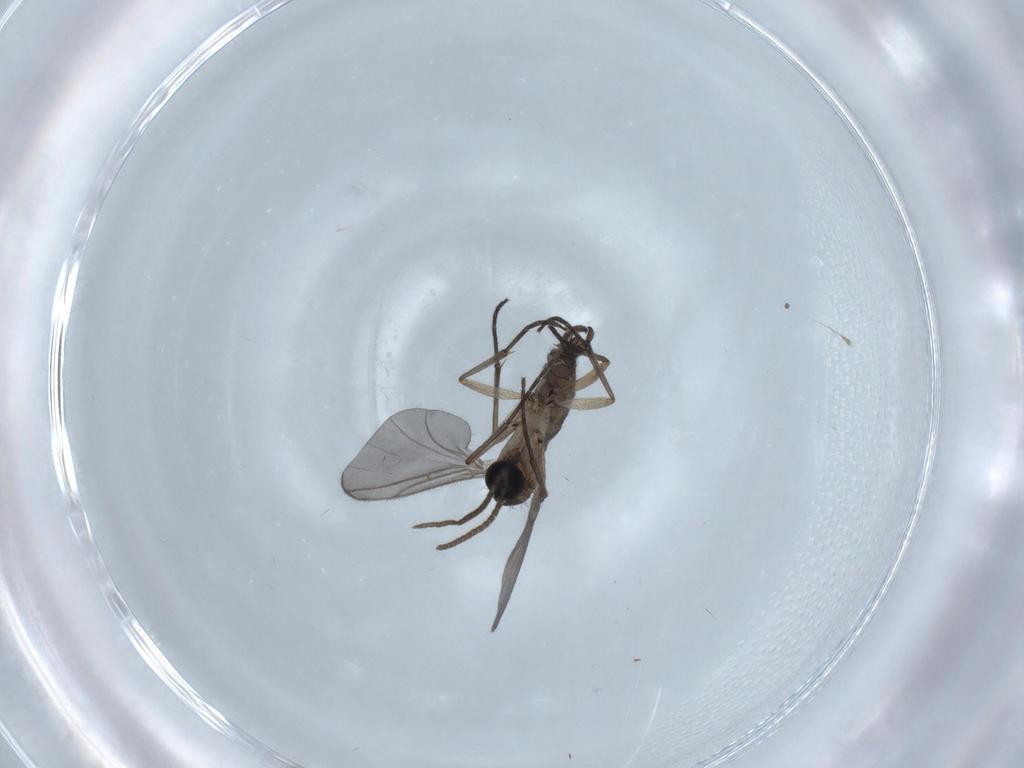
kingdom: Animalia
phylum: Arthropoda
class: Insecta
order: Diptera
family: Sciaridae
